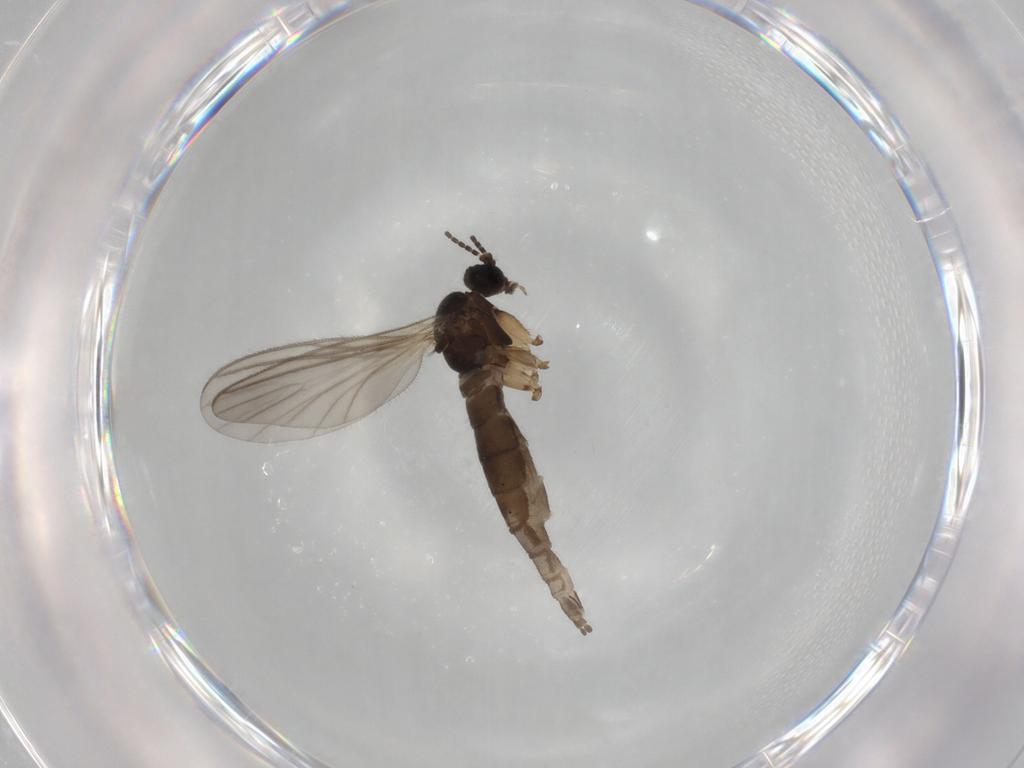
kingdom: Animalia
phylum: Arthropoda
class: Insecta
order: Diptera
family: Sciaridae
